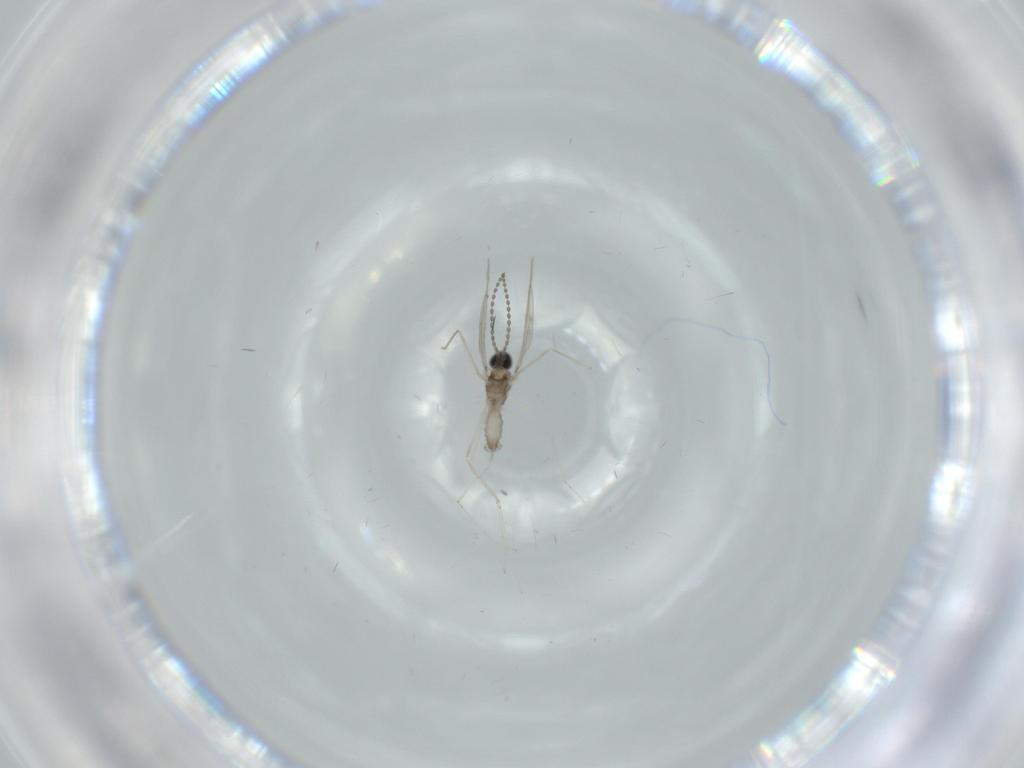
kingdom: Animalia
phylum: Arthropoda
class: Insecta
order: Diptera
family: Cecidomyiidae
